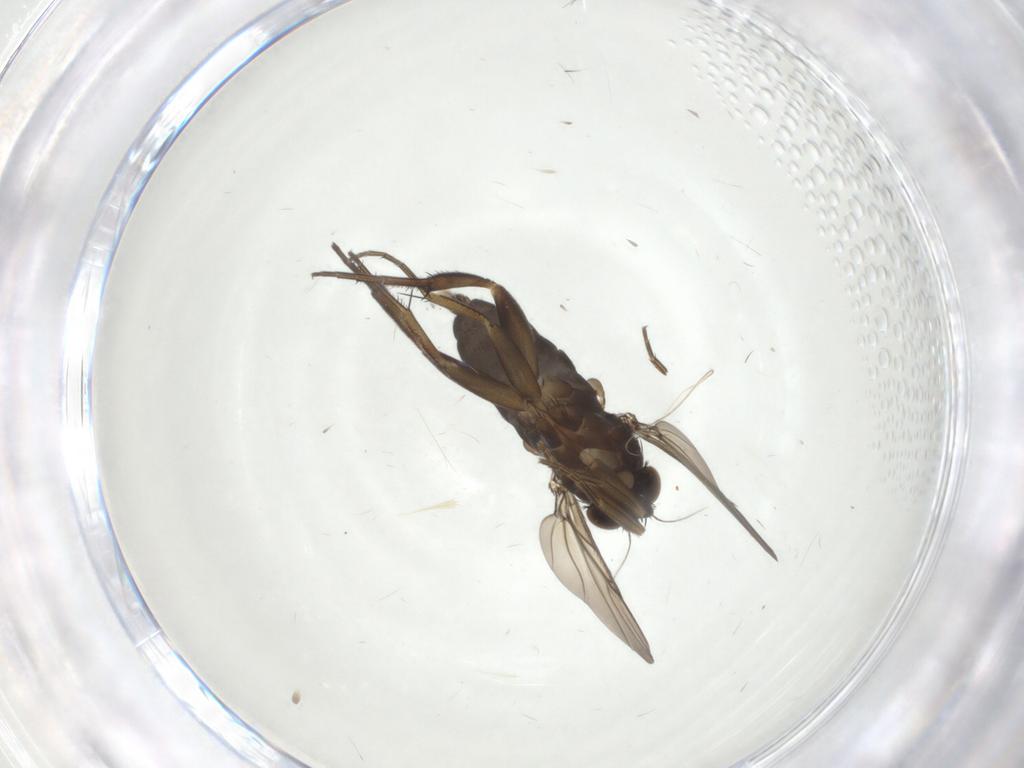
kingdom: Animalia
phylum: Arthropoda
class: Insecta
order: Diptera
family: Phoridae
